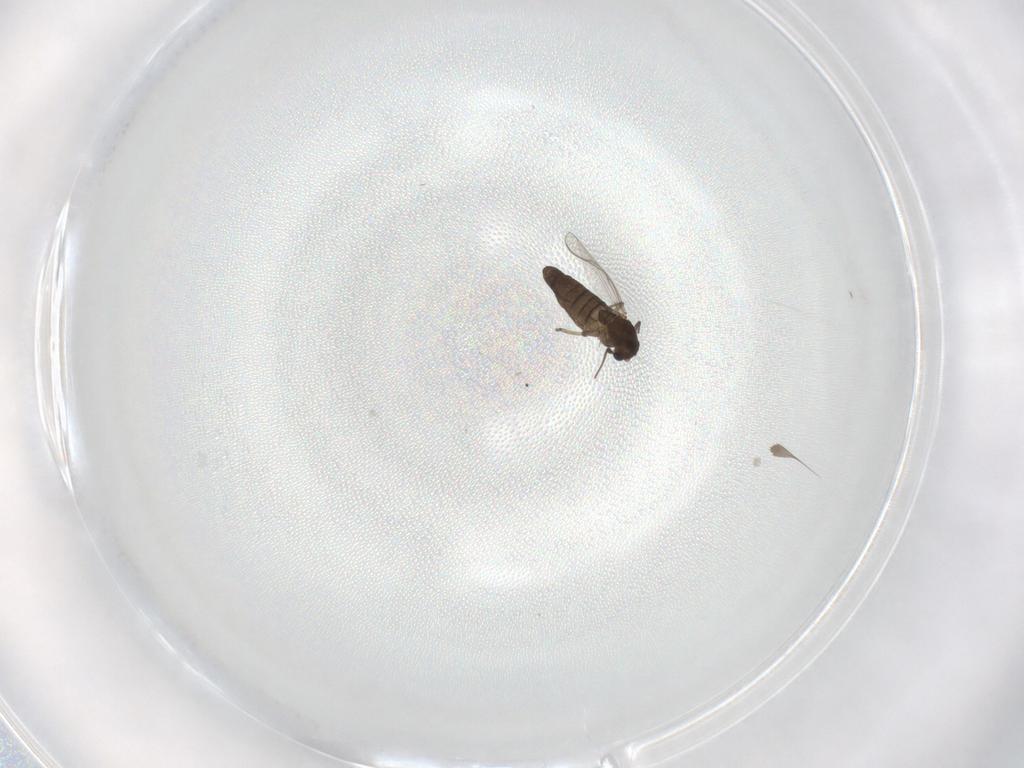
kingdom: Animalia
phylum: Arthropoda
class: Insecta
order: Diptera
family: Chironomidae
